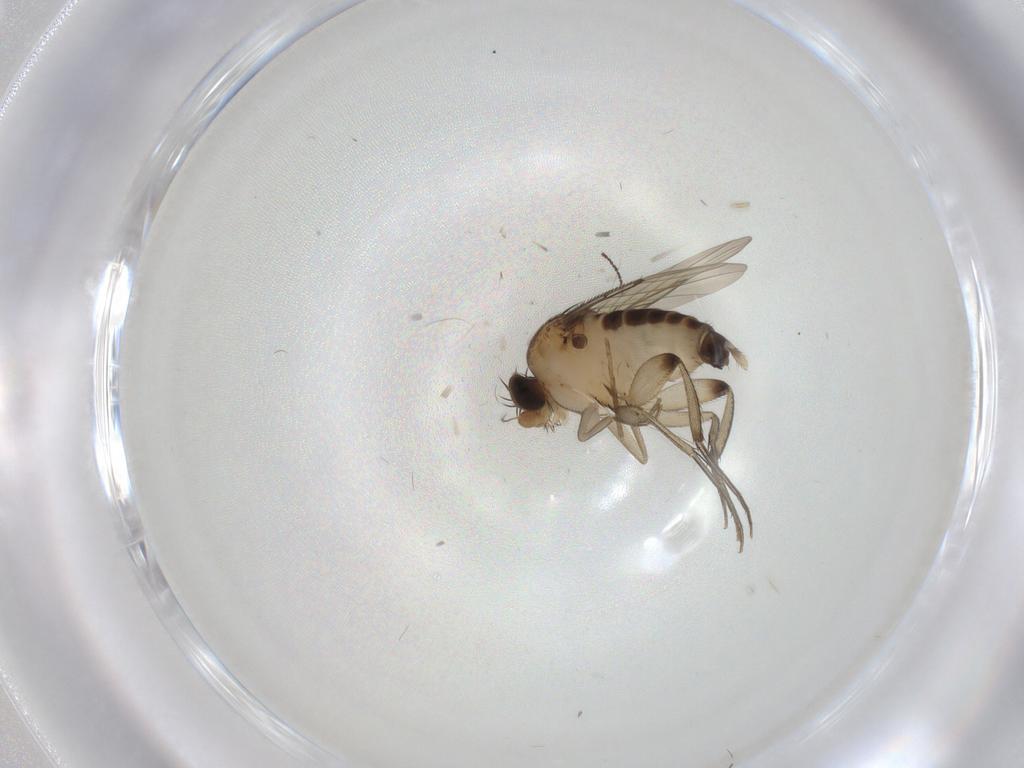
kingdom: Animalia
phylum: Arthropoda
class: Insecta
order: Diptera
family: Phoridae
